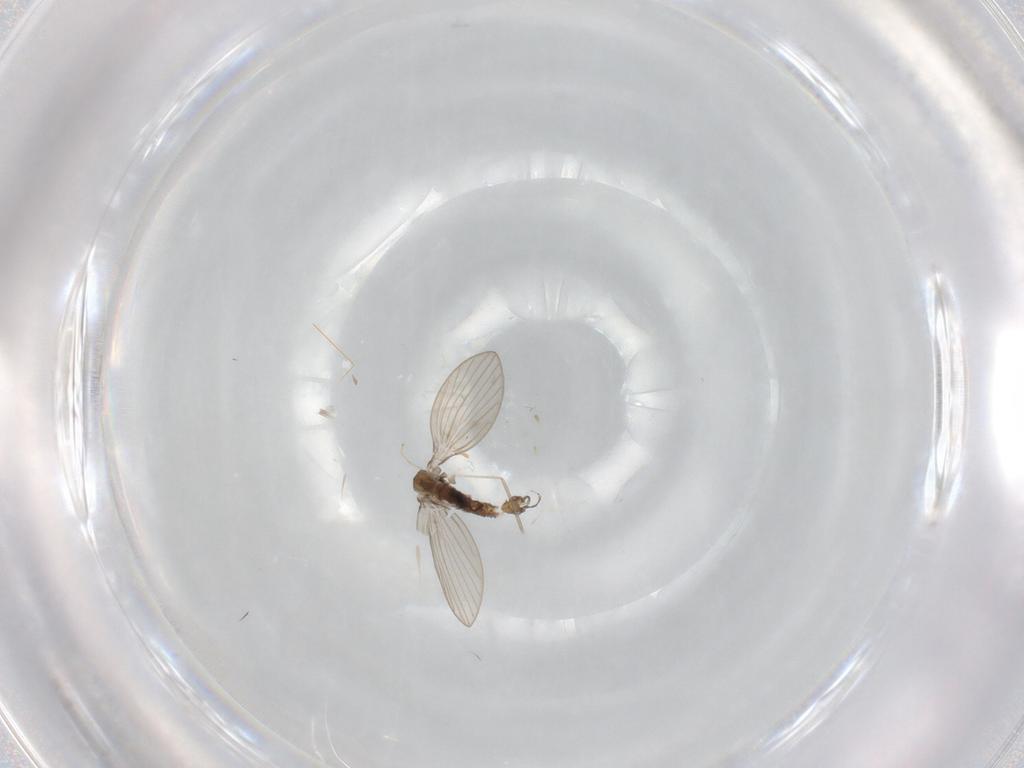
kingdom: Animalia
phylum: Arthropoda
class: Insecta
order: Diptera
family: Psychodidae
